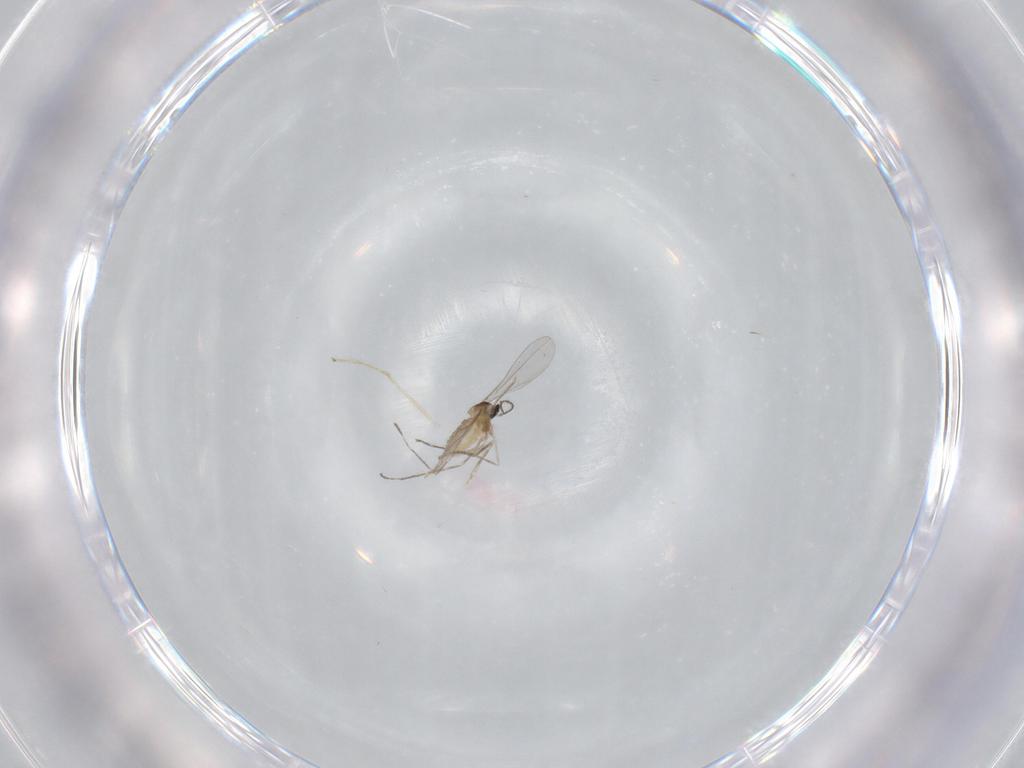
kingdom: Animalia
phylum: Arthropoda
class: Insecta
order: Diptera
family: Cecidomyiidae
